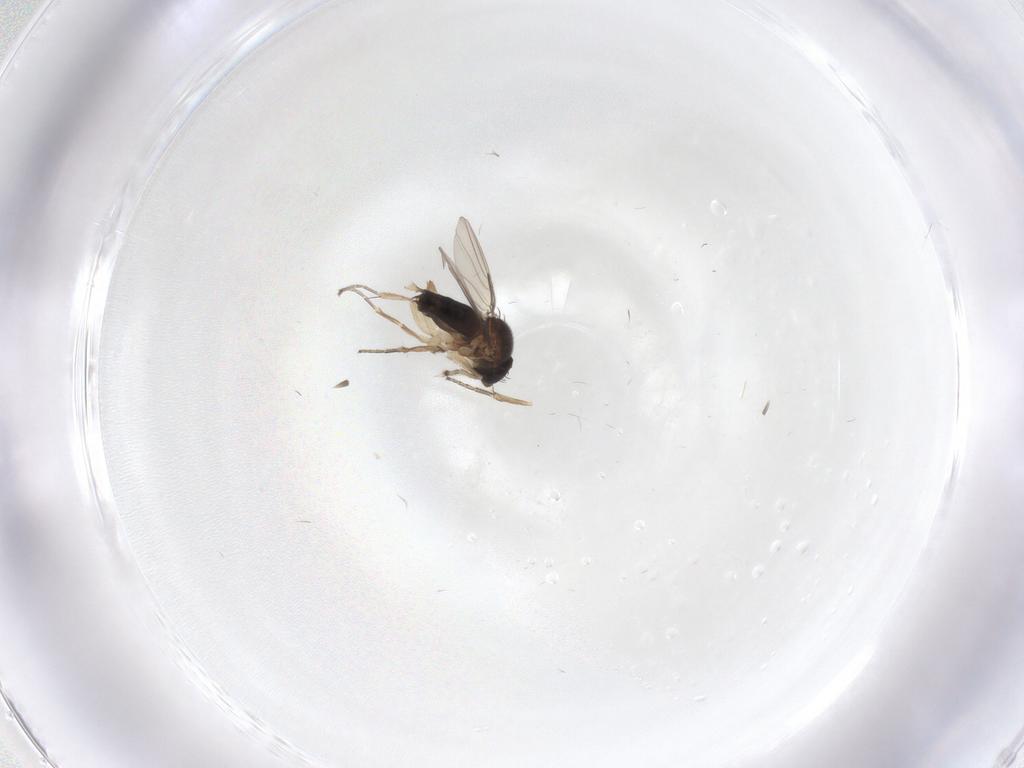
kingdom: Animalia
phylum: Arthropoda
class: Insecta
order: Diptera
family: Phoridae
